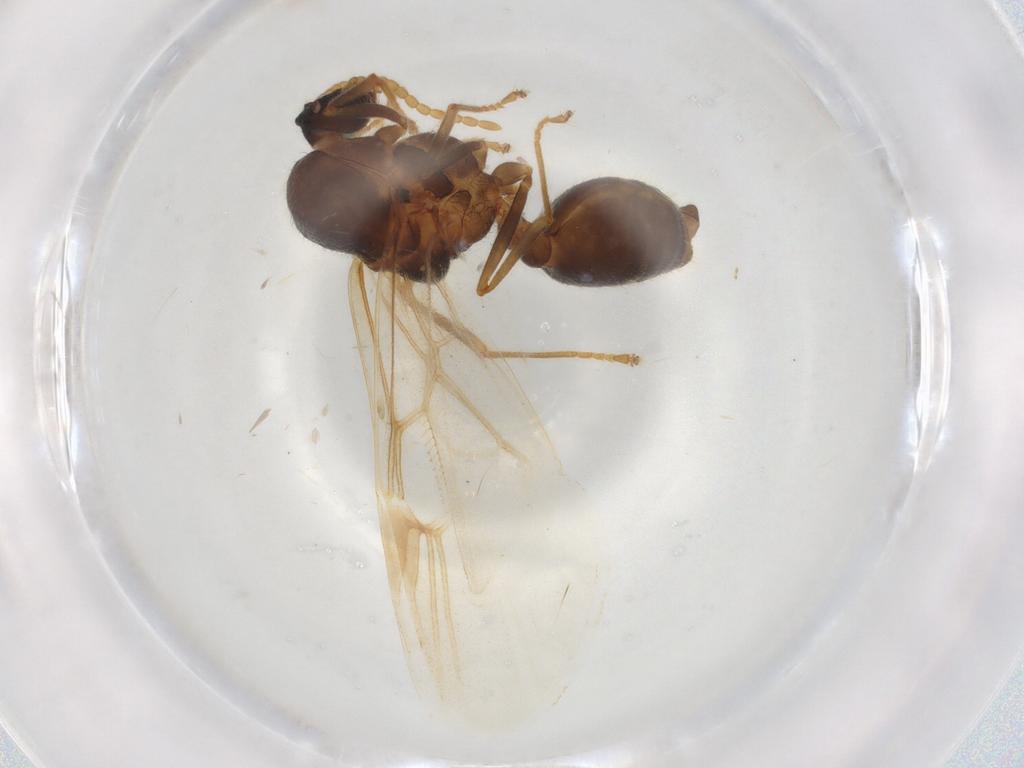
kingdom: Animalia
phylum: Arthropoda
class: Insecta
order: Hymenoptera
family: Formicidae
